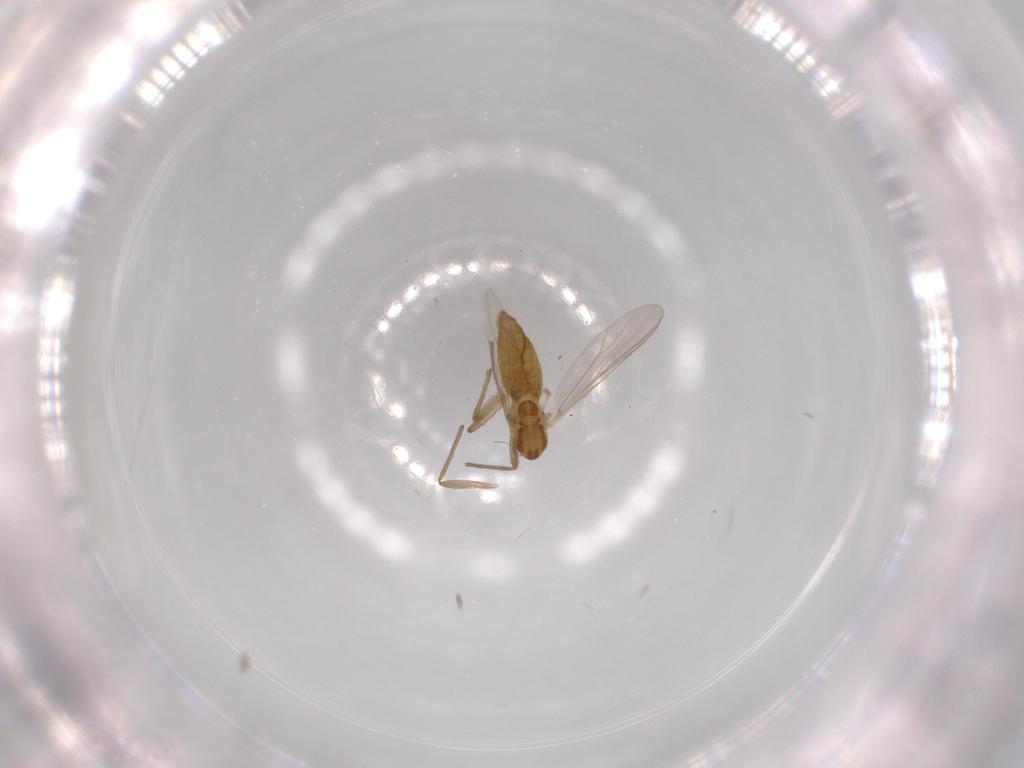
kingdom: Animalia
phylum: Arthropoda
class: Insecta
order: Diptera
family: Chironomidae
